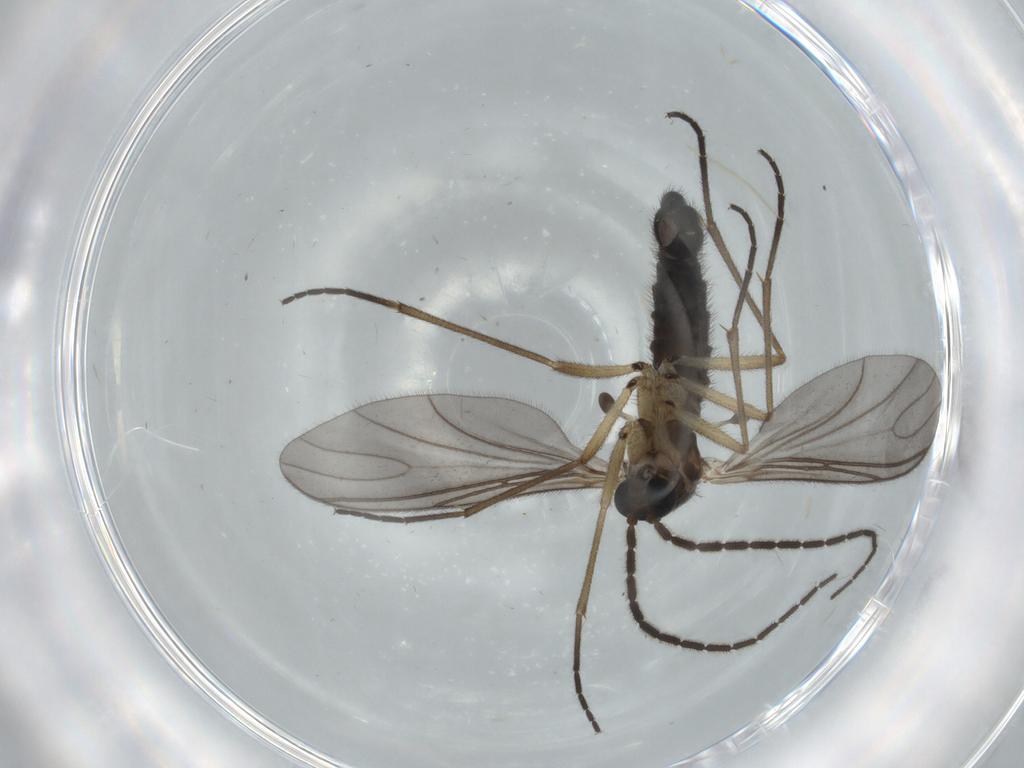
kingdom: Animalia
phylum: Arthropoda
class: Insecta
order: Diptera
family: Sciaridae
